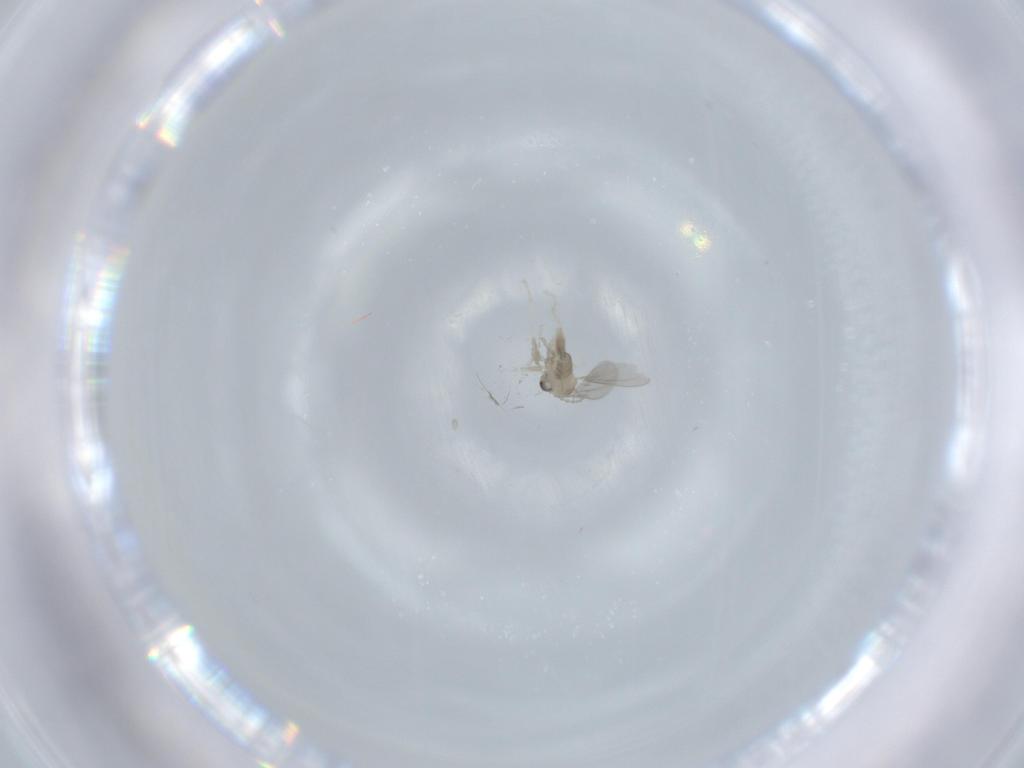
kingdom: Animalia
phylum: Arthropoda
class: Insecta
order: Diptera
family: Cecidomyiidae
